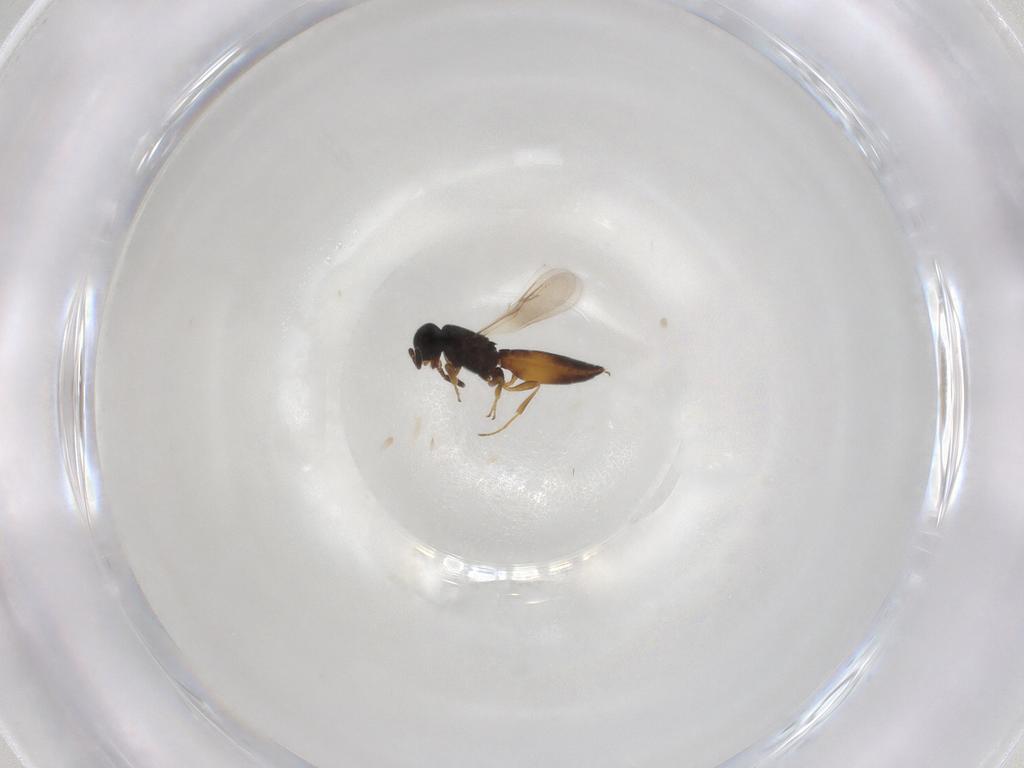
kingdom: Animalia
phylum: Arthropoda
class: Insecta
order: Hymenoptera
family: Scelionidae
